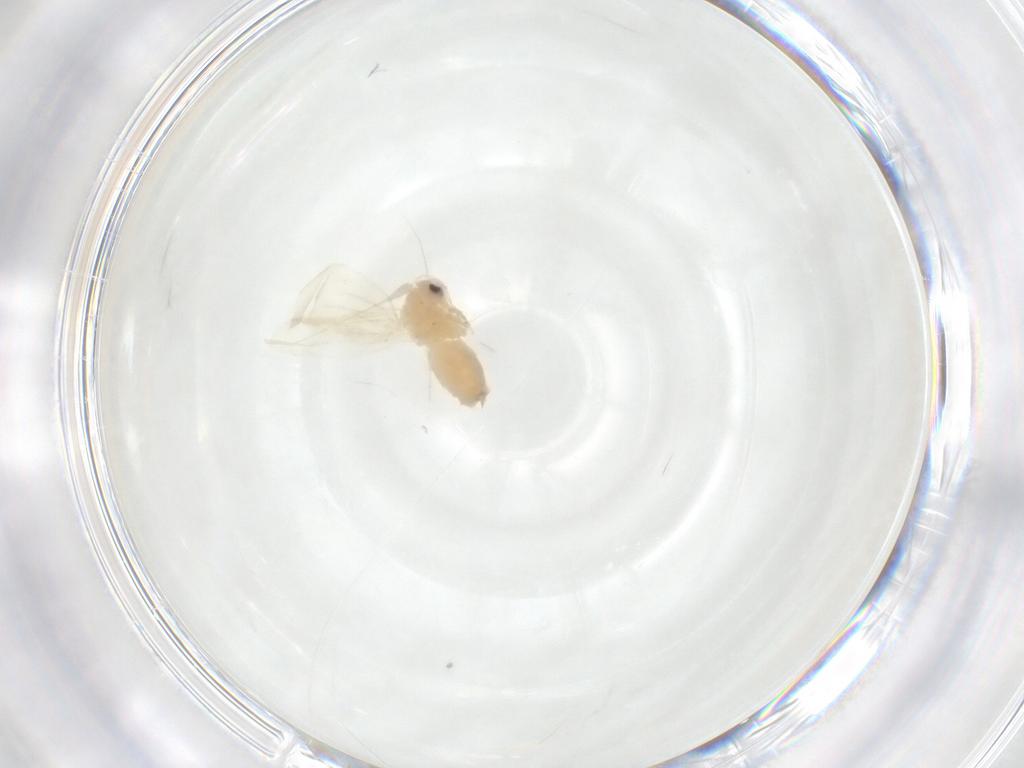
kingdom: Animalia
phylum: Arthropoda
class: Insecta
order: Hemiptera
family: Aleyrodidae
